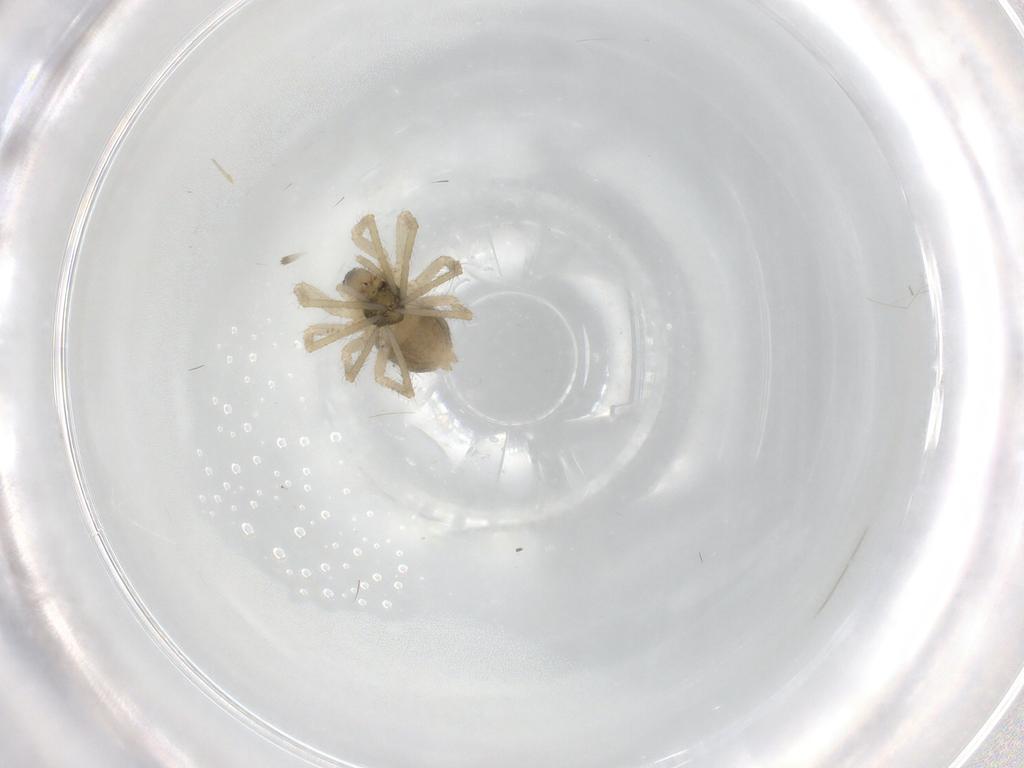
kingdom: Animalia
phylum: Arthropoda
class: Arachnida
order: Araneae
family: Linyphiidae
